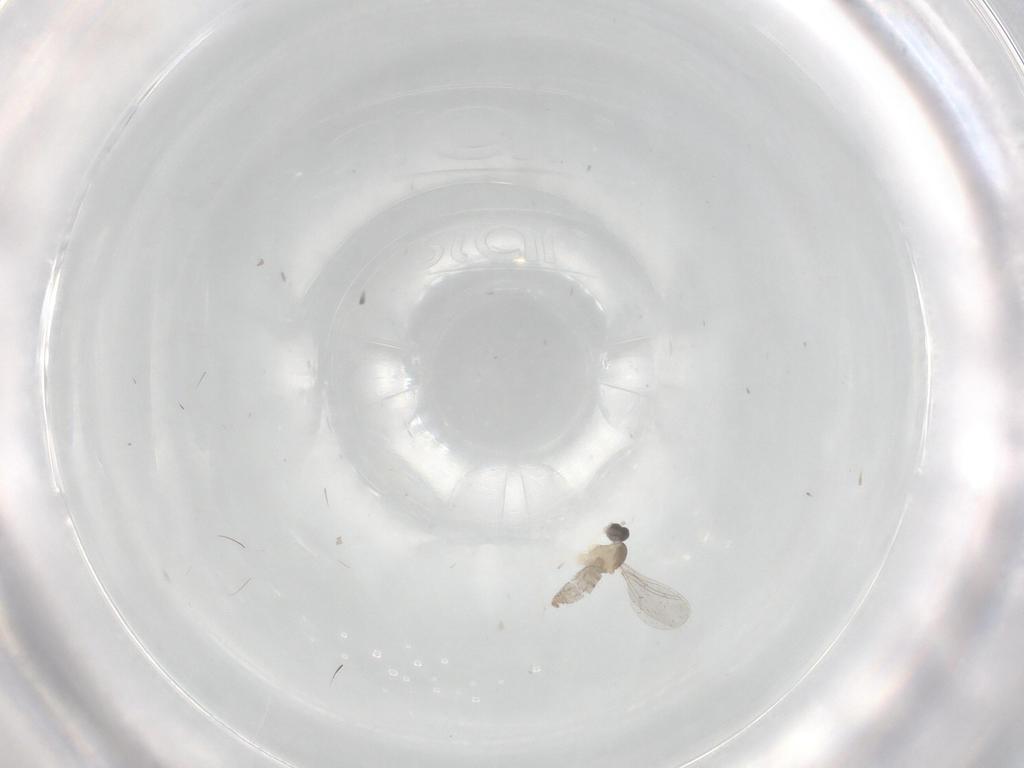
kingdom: Animalia
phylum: Arthropoda
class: Insecta
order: Diptera
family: Cecidomyiidae
